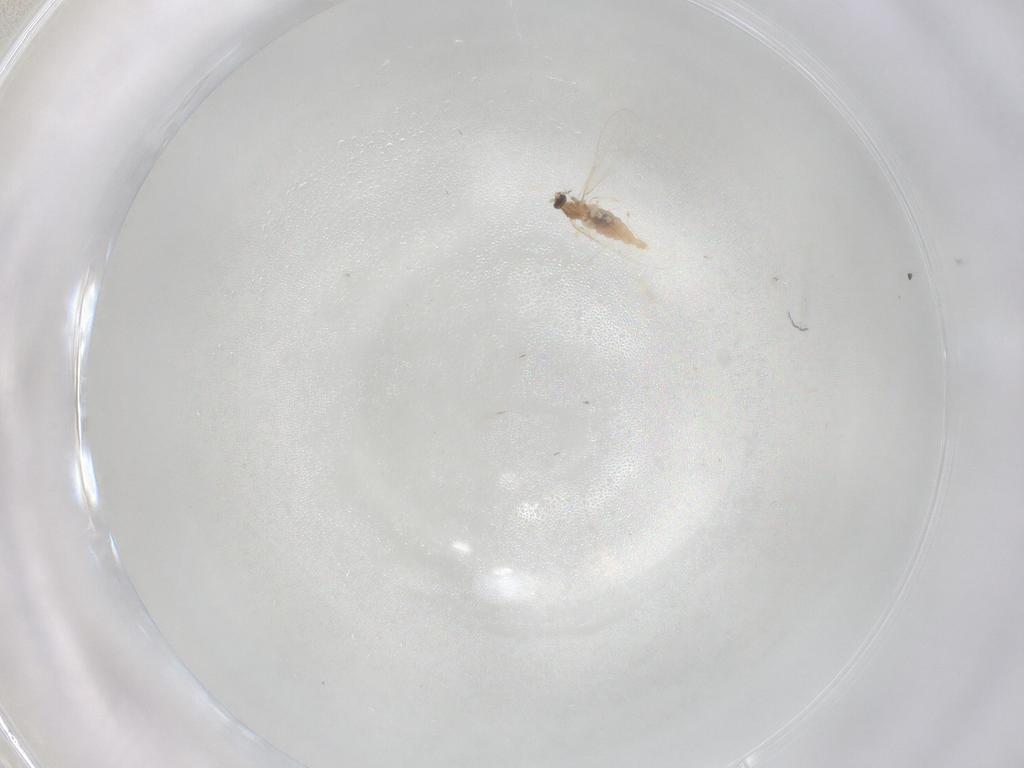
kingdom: Animalia
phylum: Arthropoda
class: Insecta
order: Diptera
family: Cecidomyiidae
